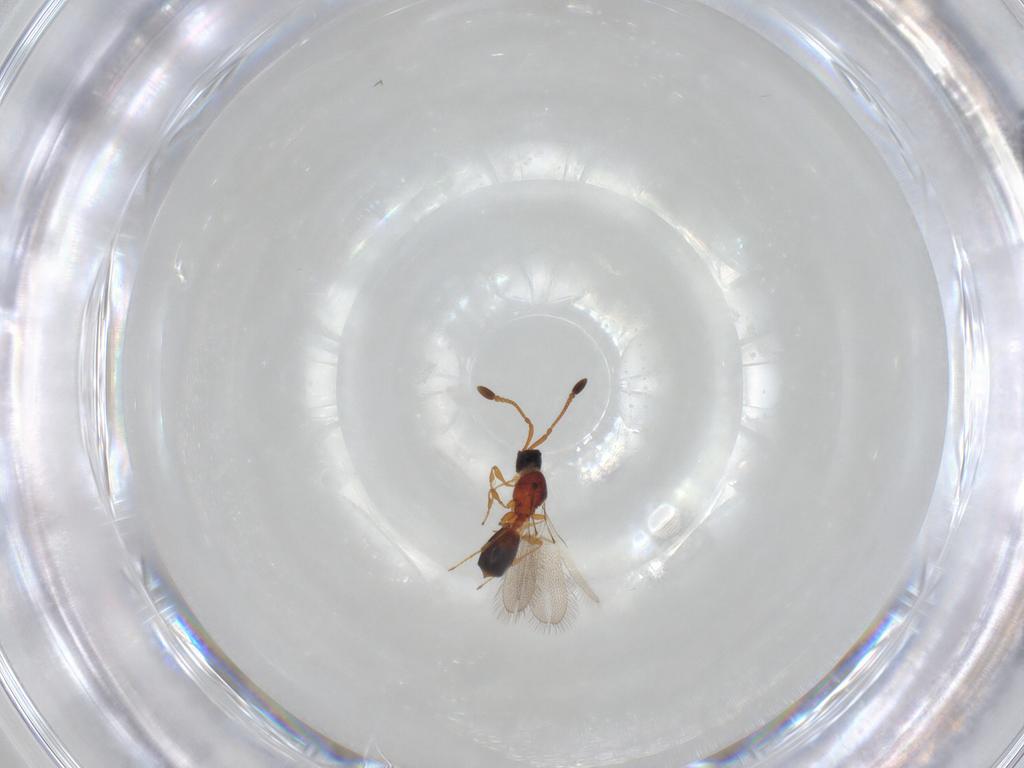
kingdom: Animalia
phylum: Arthropoda
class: Insecta
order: Hymenoptera
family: Diapriidae
